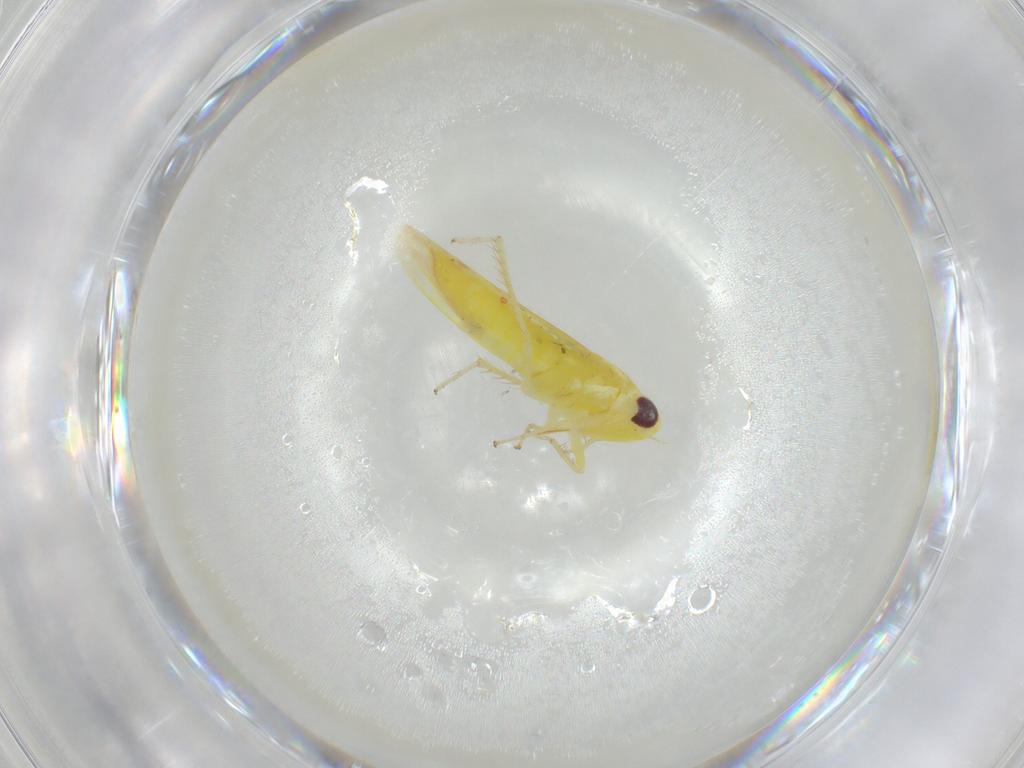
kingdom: Animalia
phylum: Arthropoda
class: Insecta
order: Hemiptera
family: Cicadellidae
